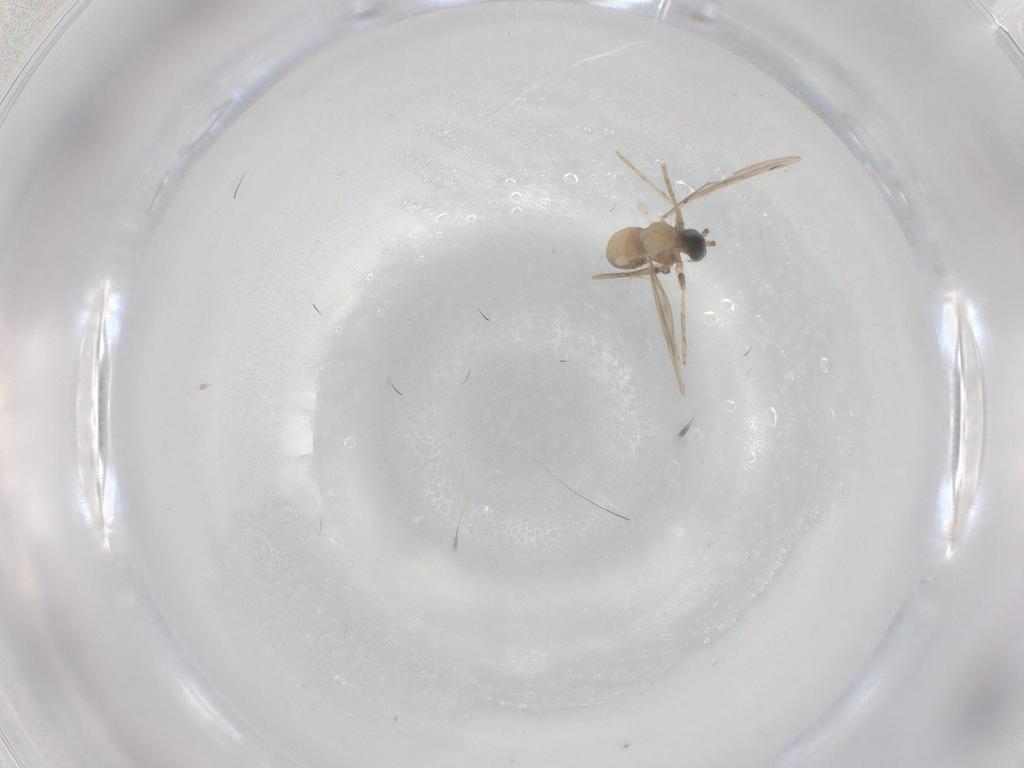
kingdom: Animalia
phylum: Arthropoda
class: Insecta
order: Diptera
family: Cecidomyiidae
